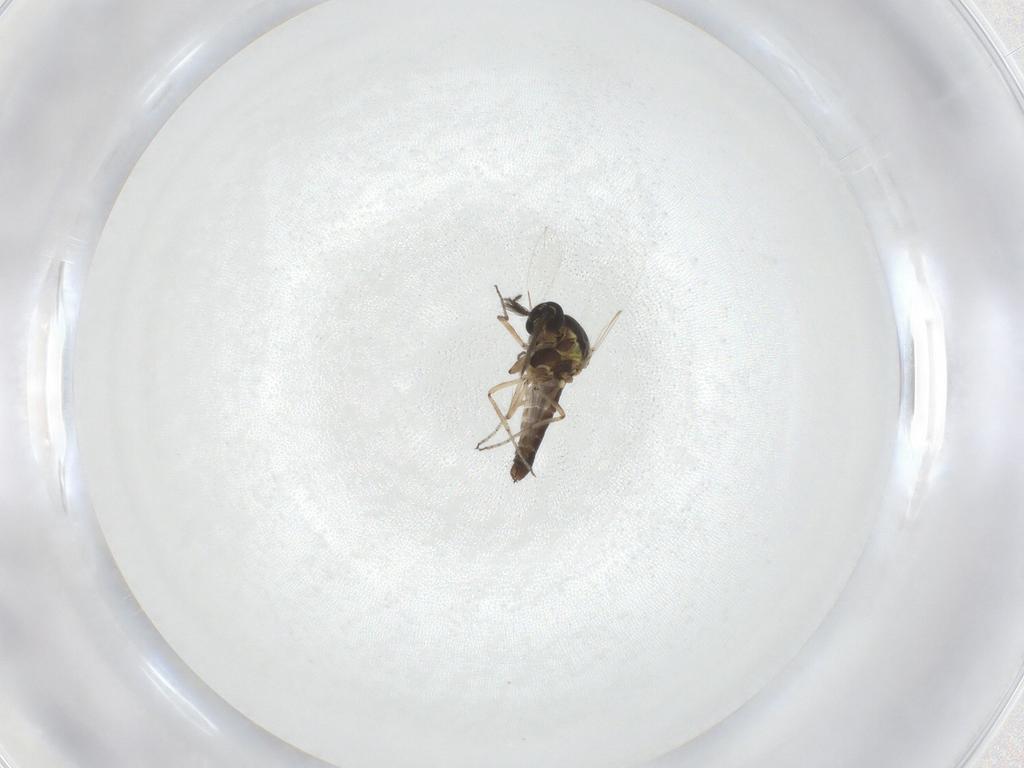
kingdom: Animalia
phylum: Arthropoda
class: Insecta
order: Diptera
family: Ceratopogonidae
